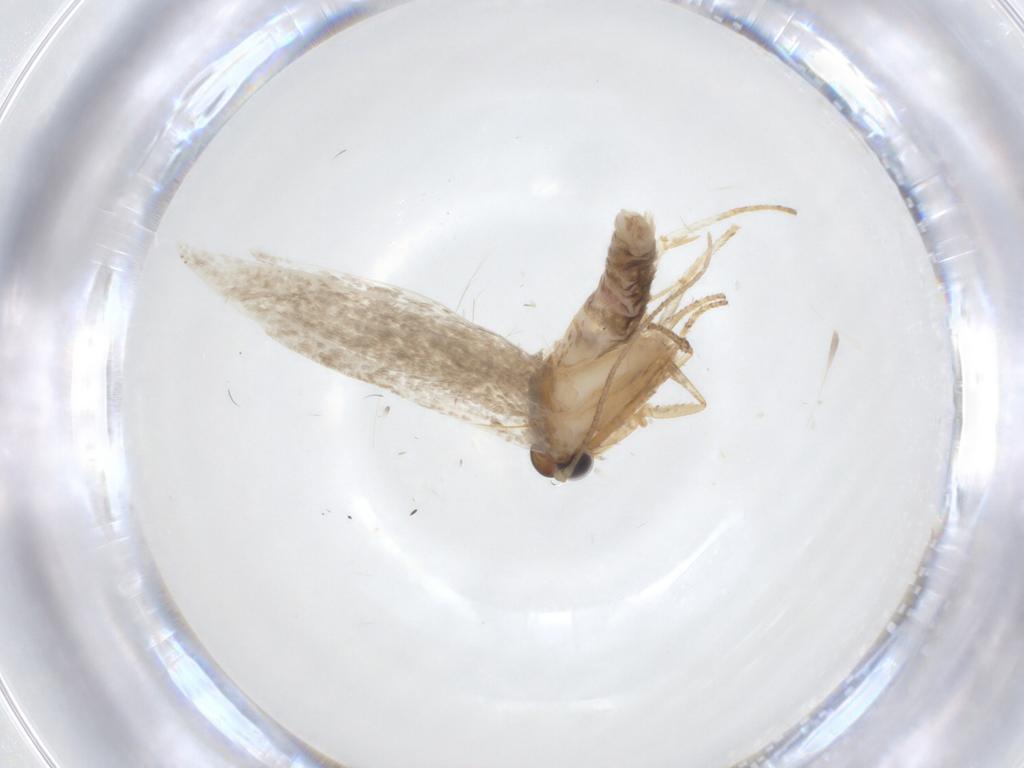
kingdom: Animalia
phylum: Arthropoda
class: Insecta
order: Lepidoptera
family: Blastobasidae
